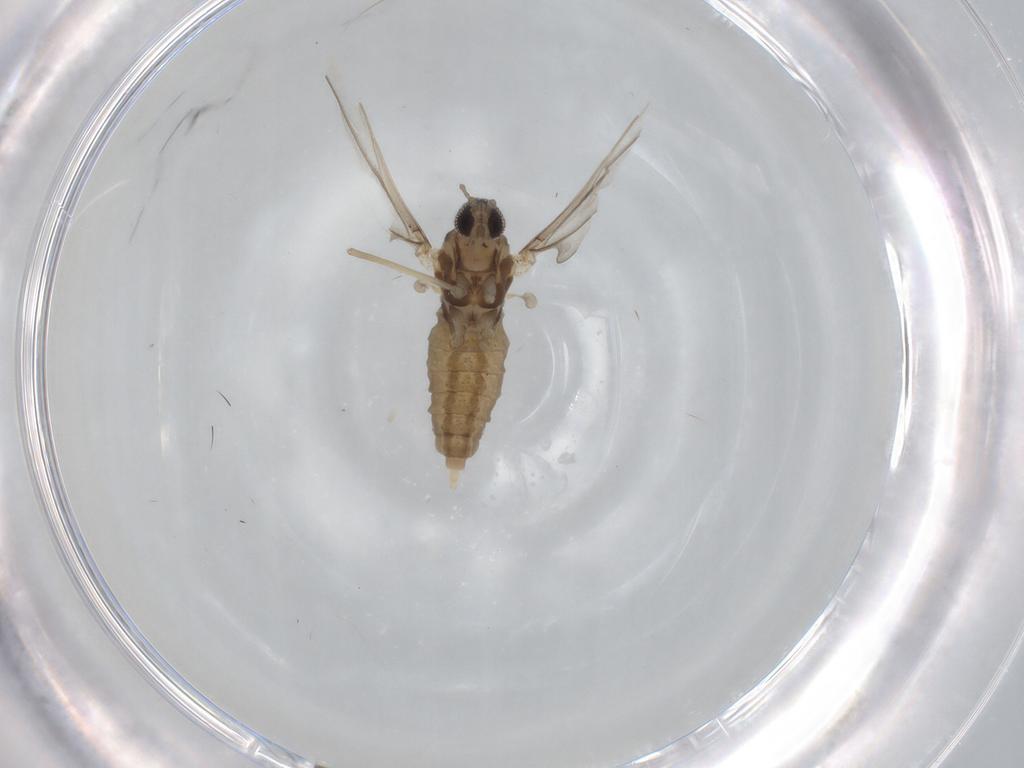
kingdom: Animalia
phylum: Arthropoda
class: Insecta
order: Diptera
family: Cecidomyiidae
